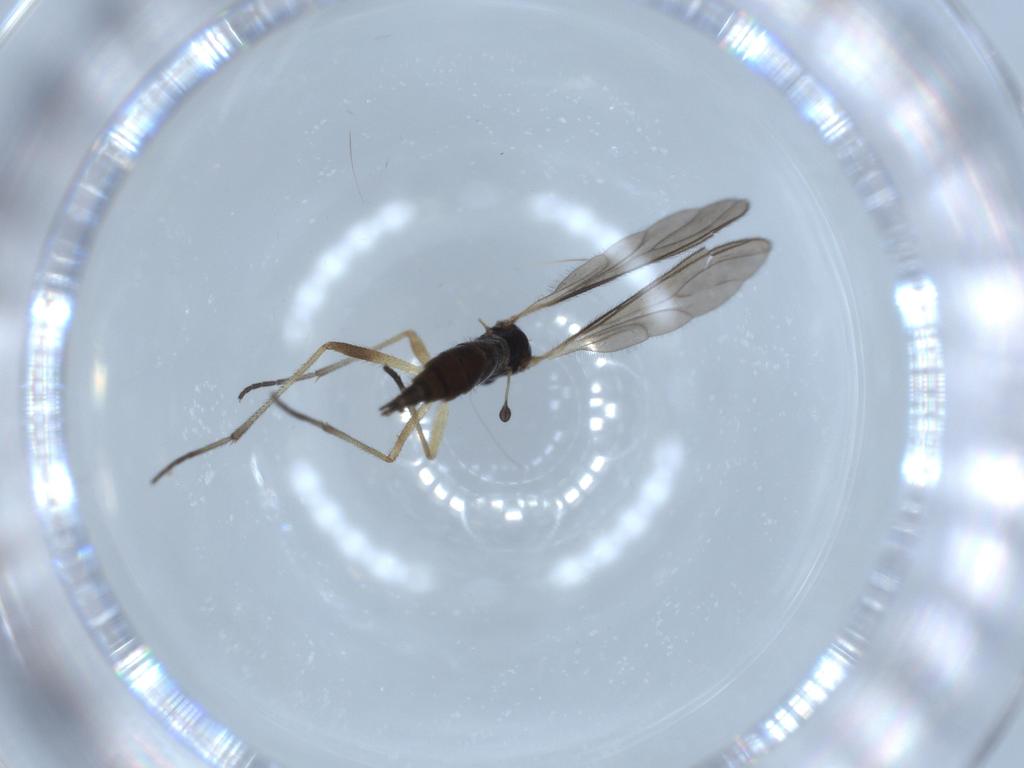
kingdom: Animalia
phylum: Arthropoda
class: Insecta
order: Diptera
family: Sciaridae
